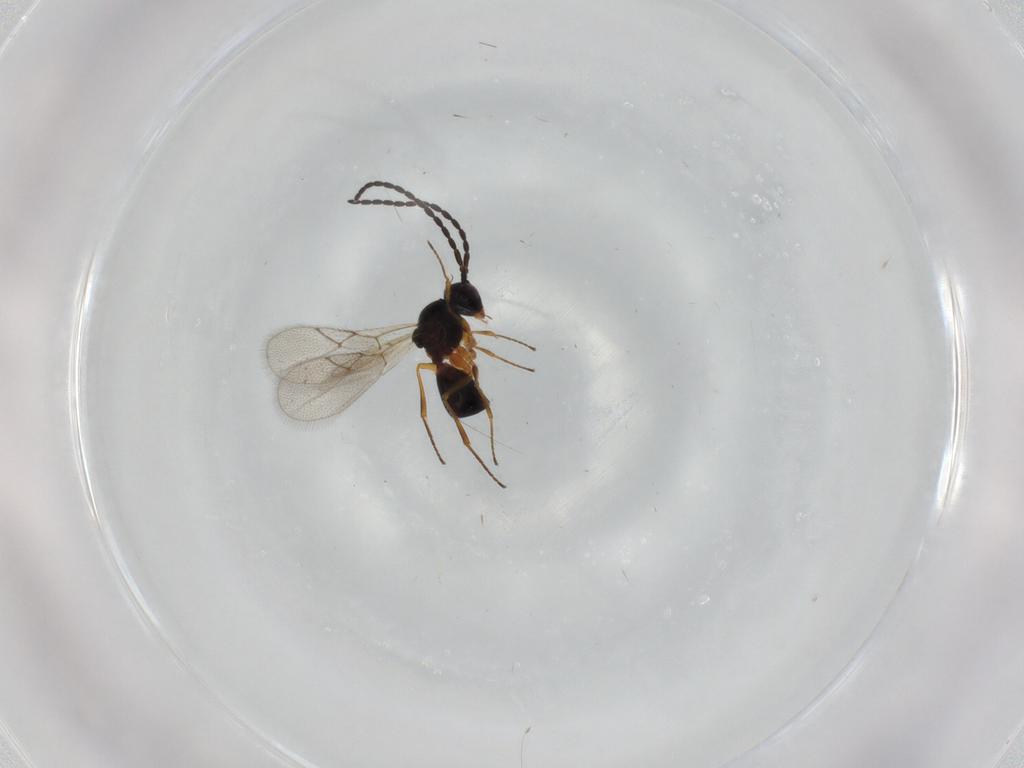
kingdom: Animalia
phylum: Arthropoda
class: Insecta
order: Hymenoptera
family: Figitidae
